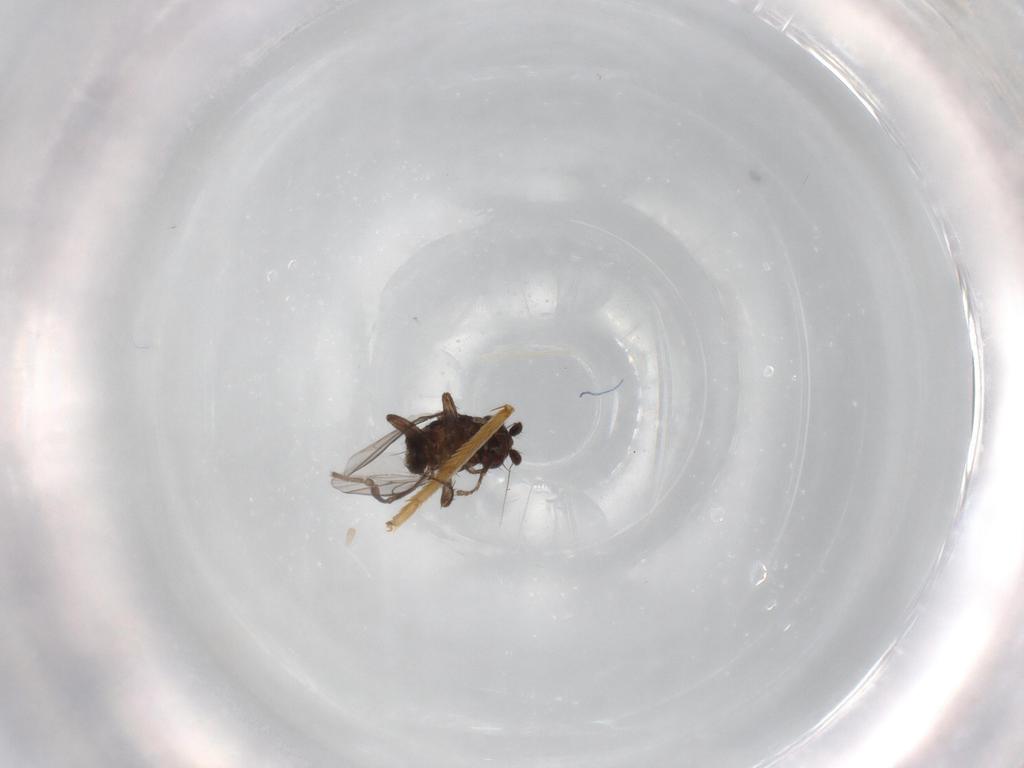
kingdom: Animalia
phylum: Arthropoda
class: Insecta
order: Diptera
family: Sphaeroceridae
